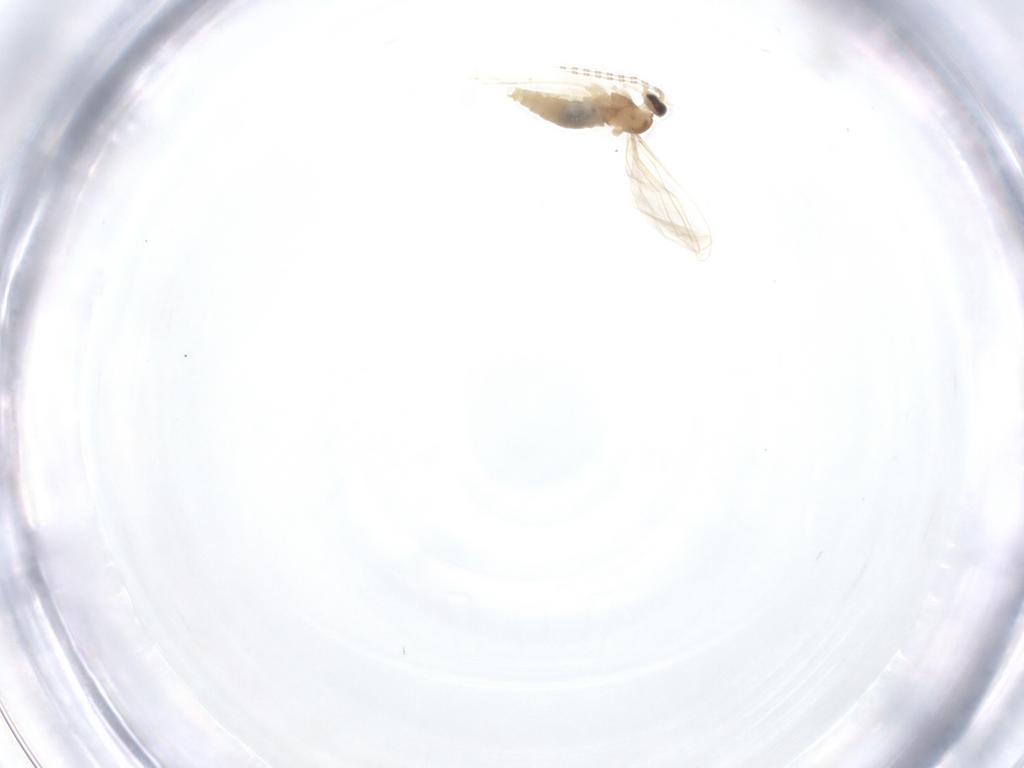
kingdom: Animalia
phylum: Arthropoda
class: Insecta
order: Diptera
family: Cecidomyiidae
